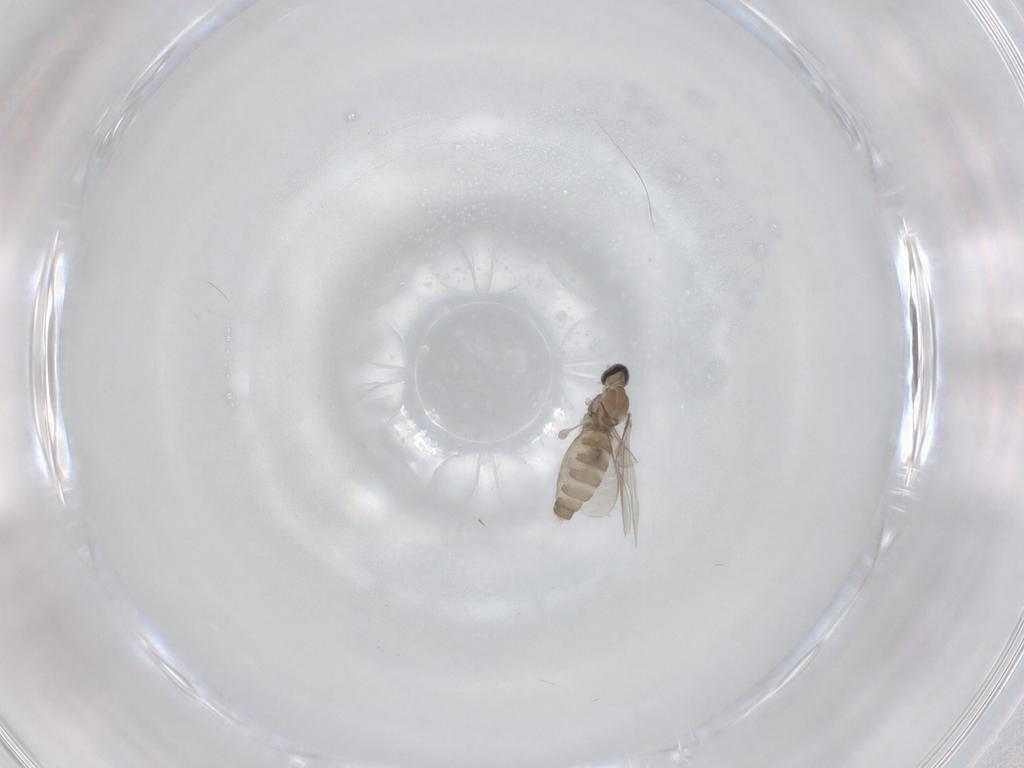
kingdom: Animalia
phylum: Arthropoda
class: Insecta
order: Diptera
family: Cecidomyiidae
